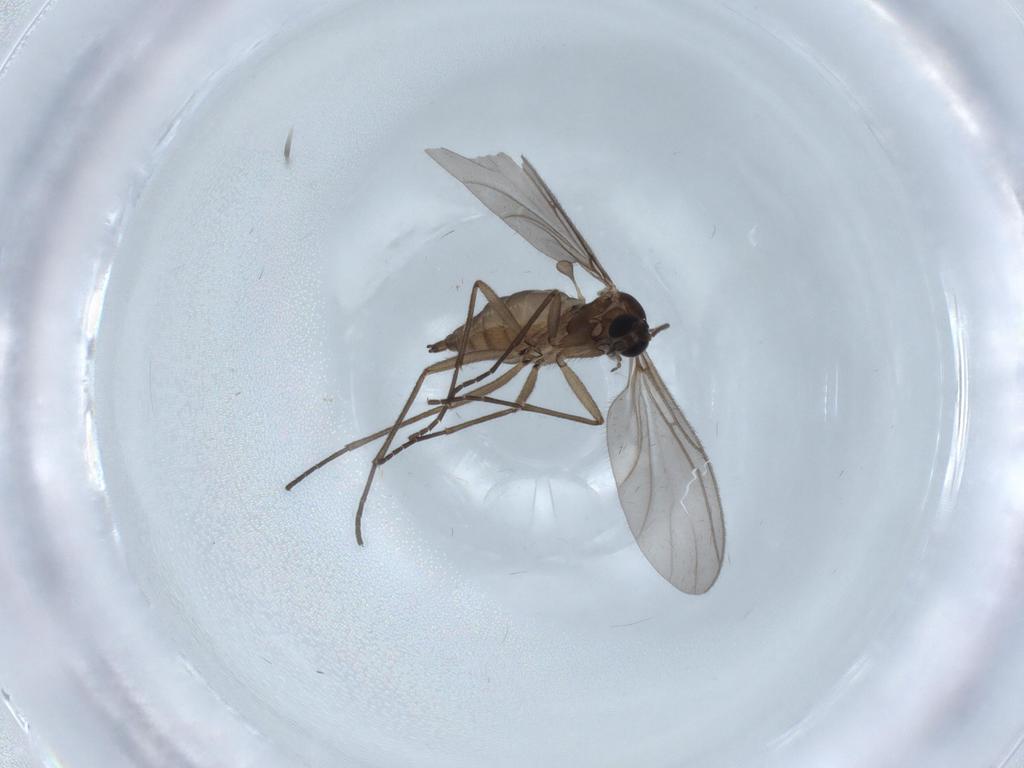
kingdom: Animalia
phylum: Arthropoda
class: Insecta
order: Diptera
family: Sciaridae
